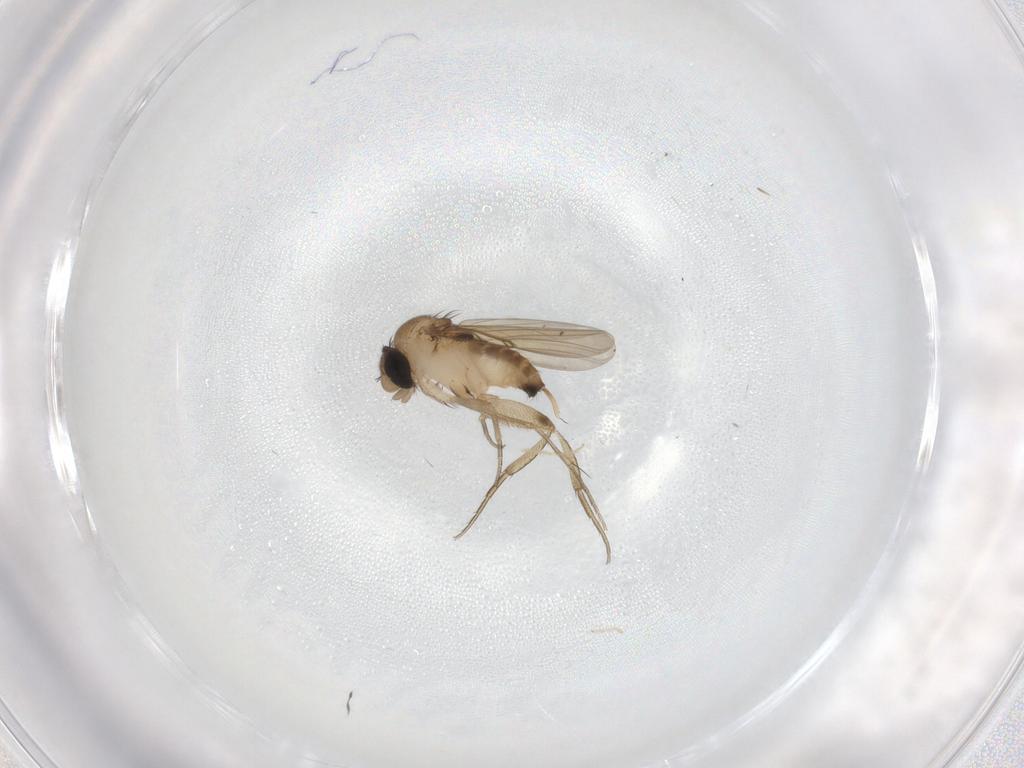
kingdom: Animalia
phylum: Arthropoda
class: Insecta
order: Diptera
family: Phoridae
